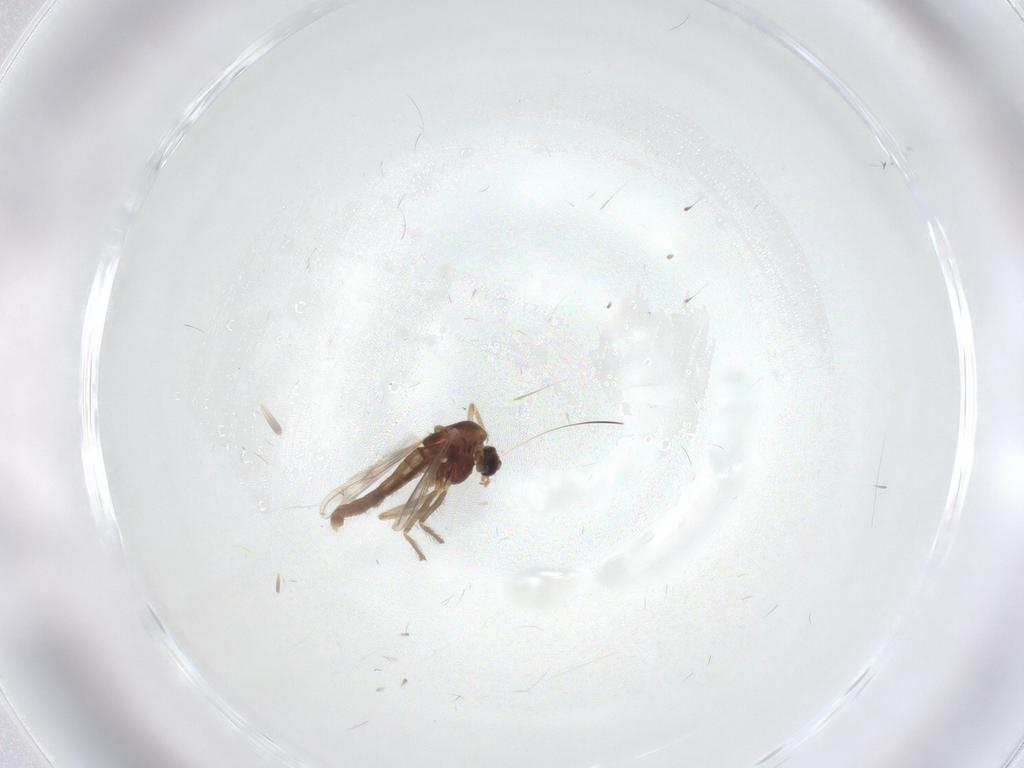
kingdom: Animalia
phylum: Arthropoda
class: Insecta
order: Diptera
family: Chironomidae
